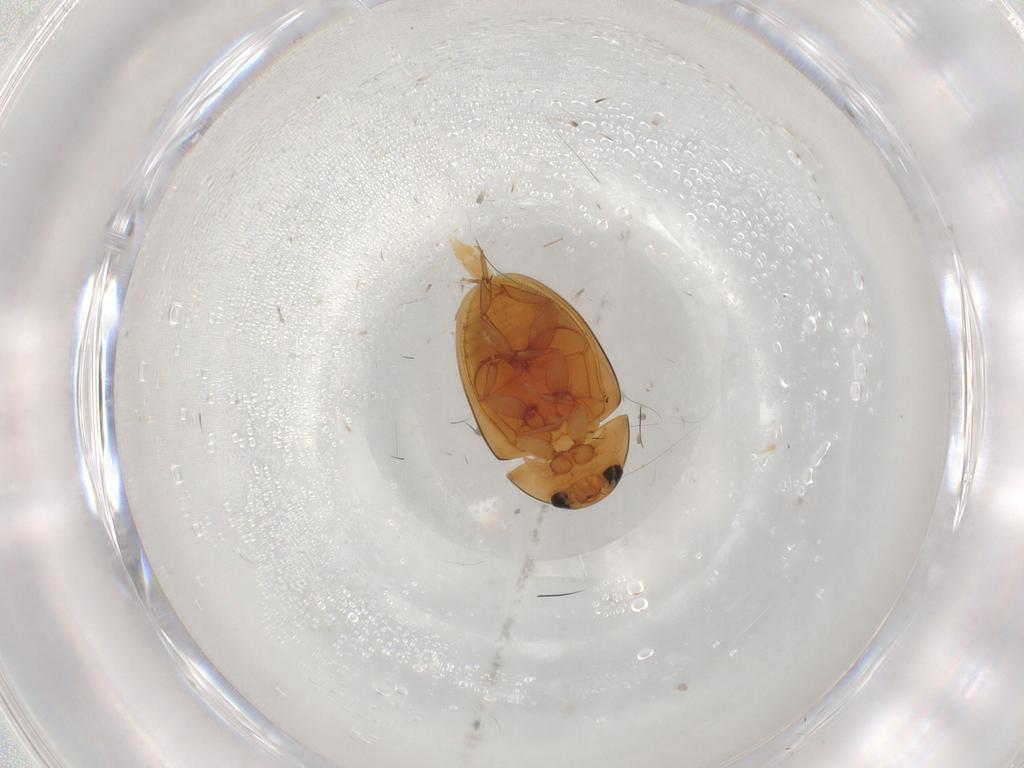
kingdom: Animalia
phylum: Arthropoda
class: Insecta
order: Coleoptera
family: Phalacridae
